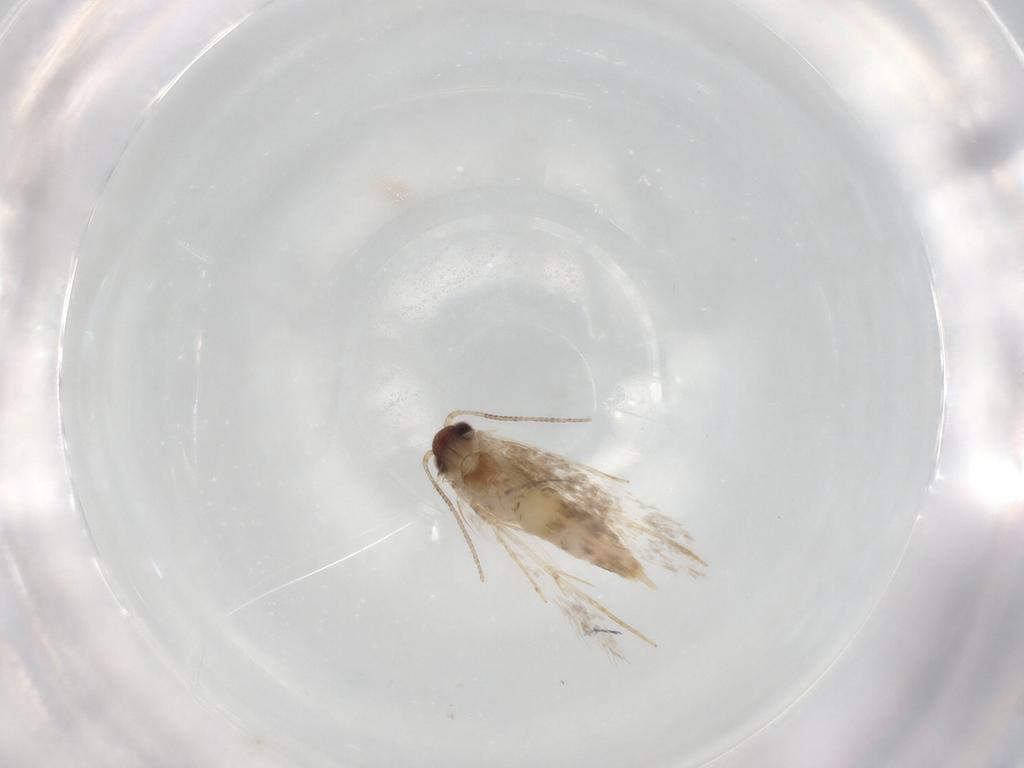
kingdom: Animalia
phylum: Arthropoda
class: Insecta
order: Lepidoptera
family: Tineidae
